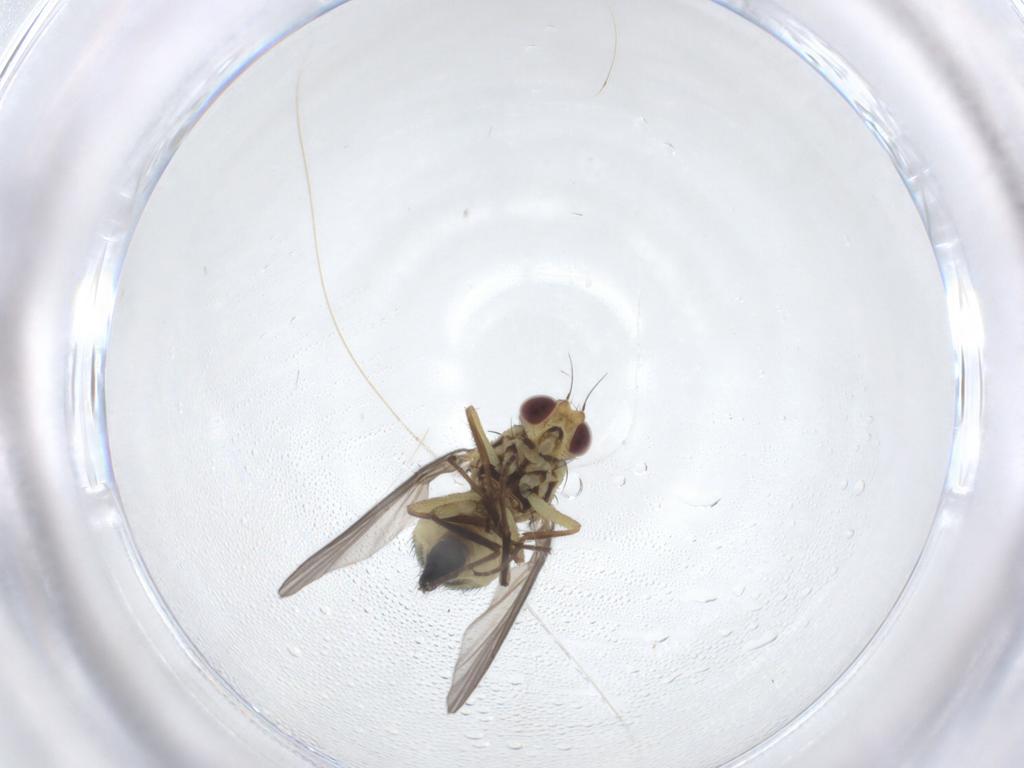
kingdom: Animalia
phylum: Arthropoda
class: Insecta
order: Diptera
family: Agromyzidae
